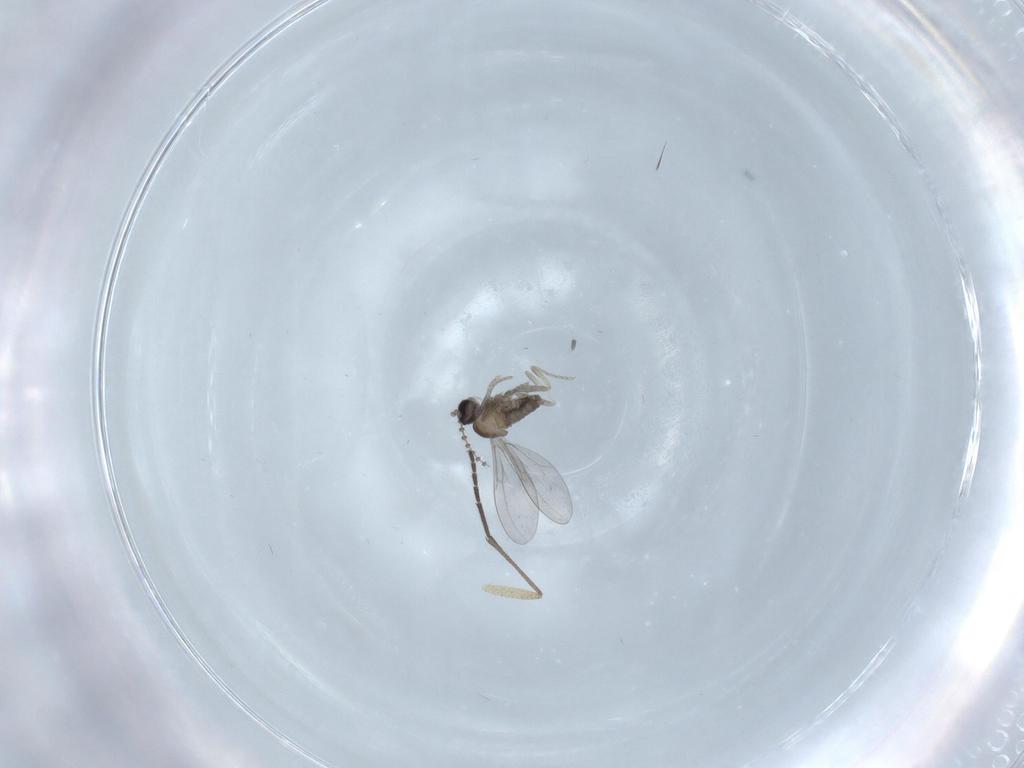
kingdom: Animalia
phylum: Arthropoda
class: Insecta
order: Diptera
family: Cecidomyiidae
